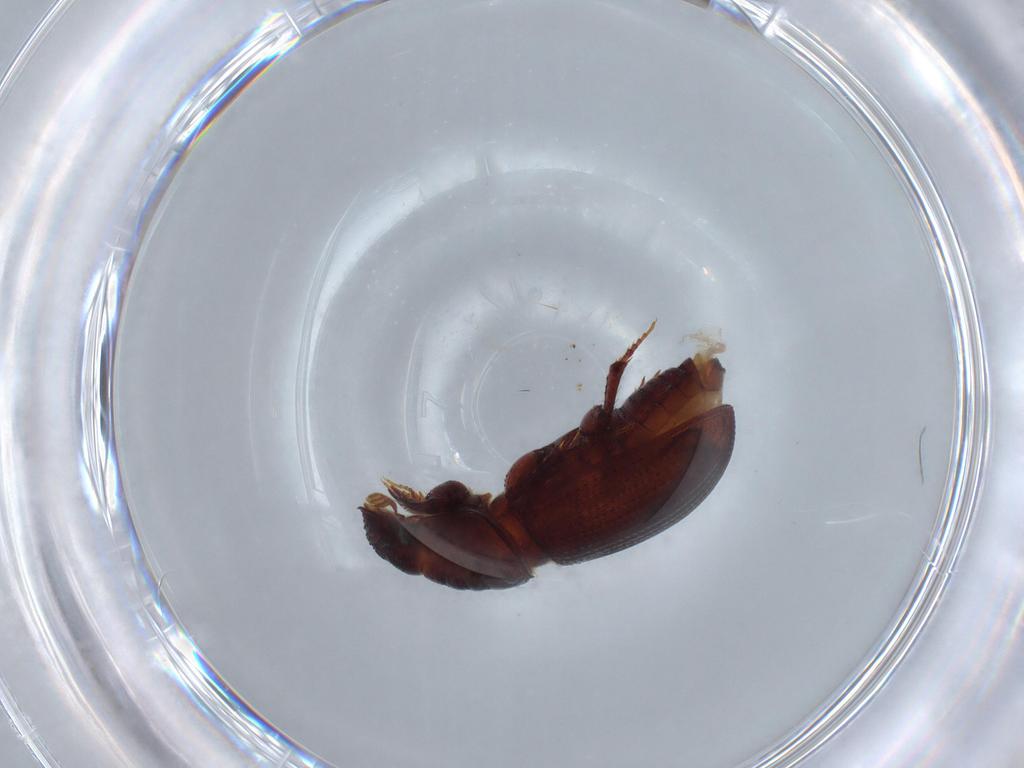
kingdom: Animalia
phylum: Arthropoda
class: Insecta
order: Coleoptera
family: Scarabaeidae
